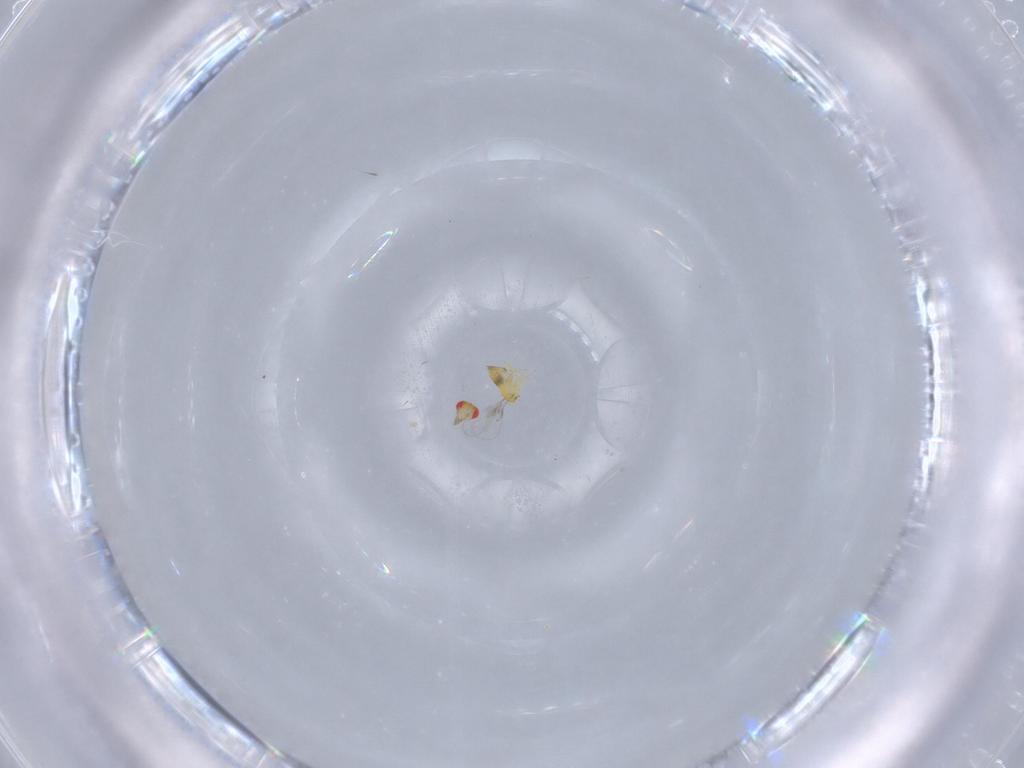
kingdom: Animalia
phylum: Arthropoda
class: Insecta
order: Hymenoptera
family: Trichogrammatidae
